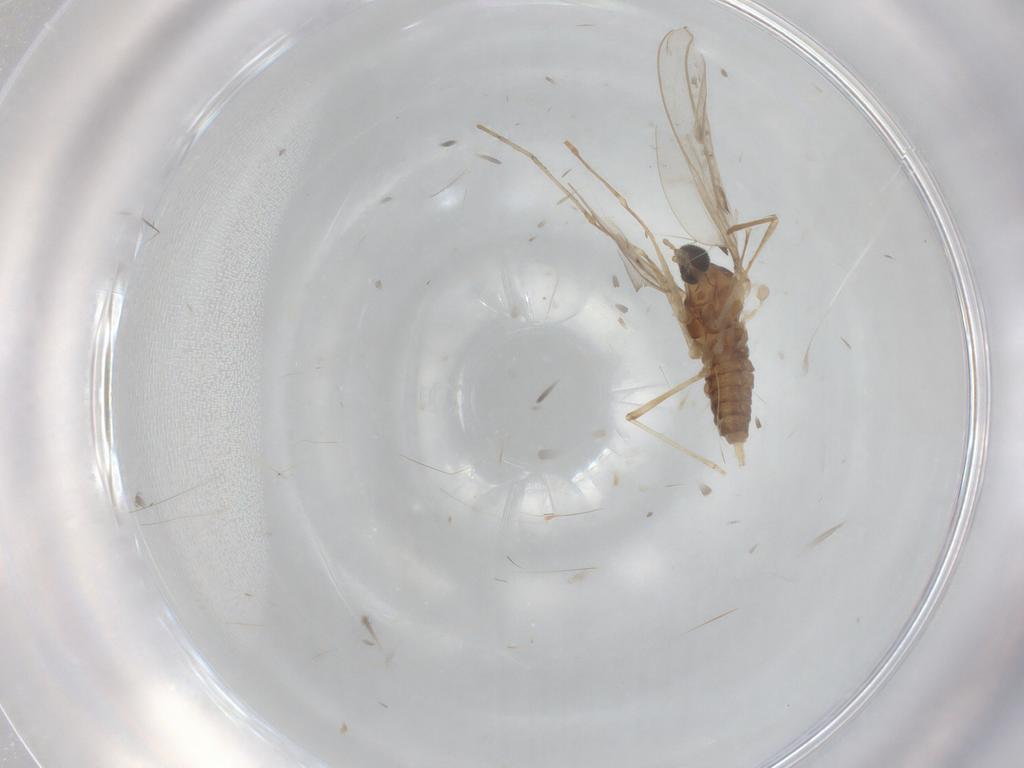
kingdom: Animalia
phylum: Arthropoda
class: Insecta
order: Diptera
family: Cecidomyiidae
